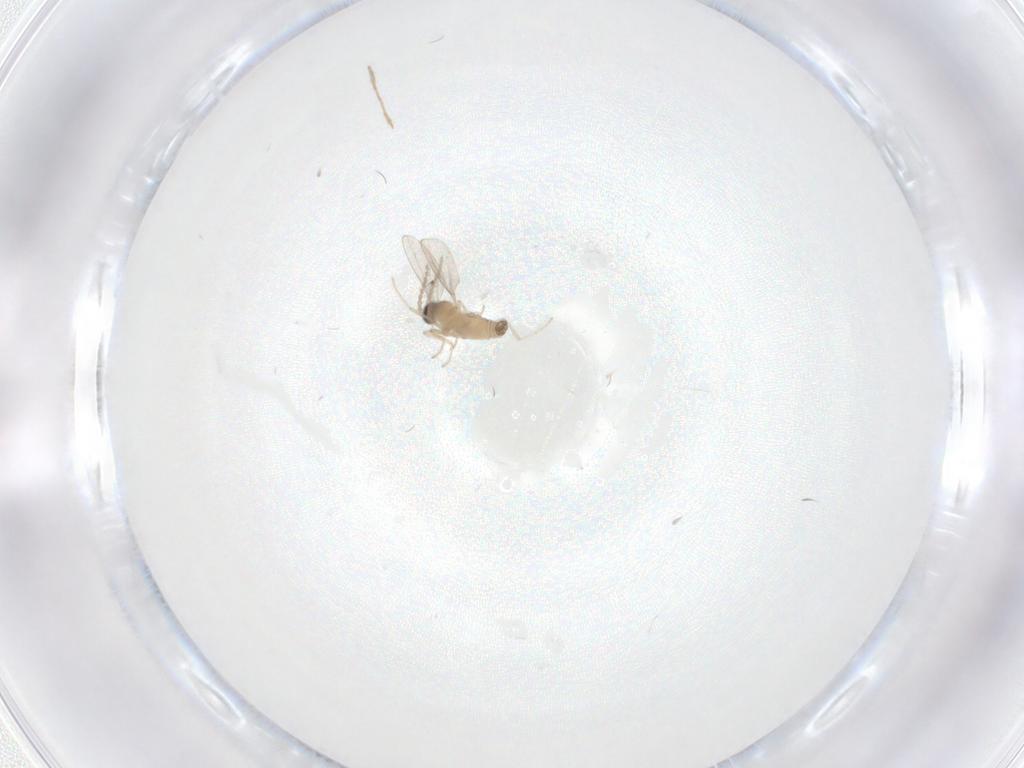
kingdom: Animalia
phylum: Arthropoda
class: Insecta
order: Diptera
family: Cecidomyiidae
